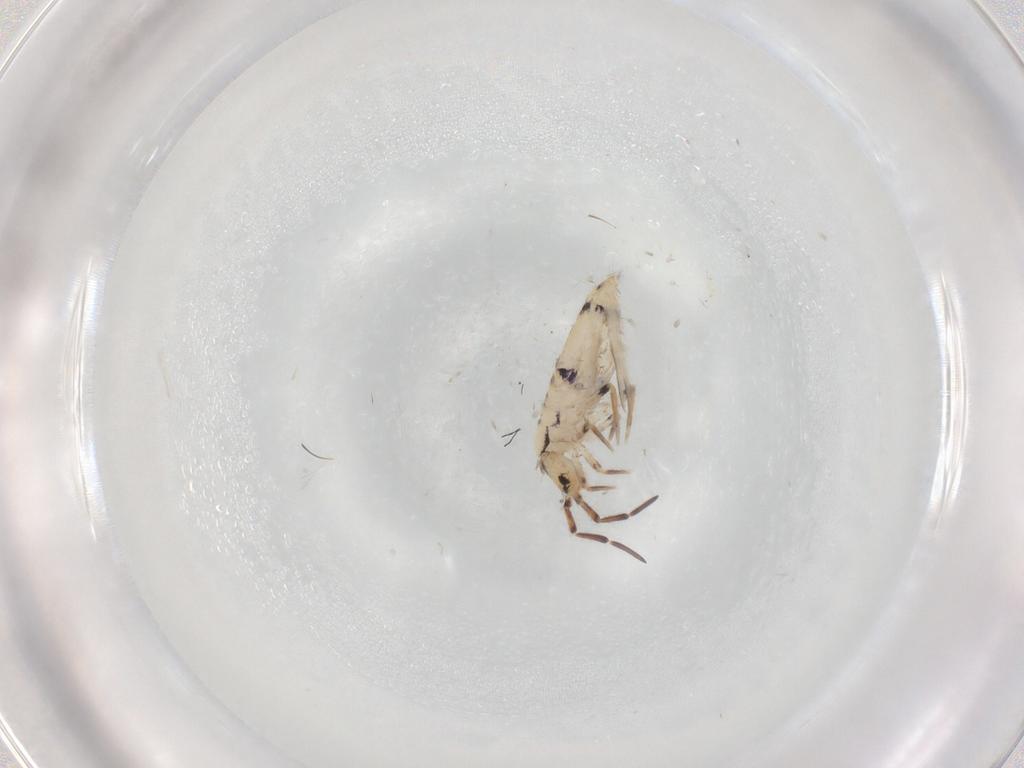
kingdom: Animalia
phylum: Arthropoda
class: Collembola
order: Entomobryomorpha
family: Entomobryidae
